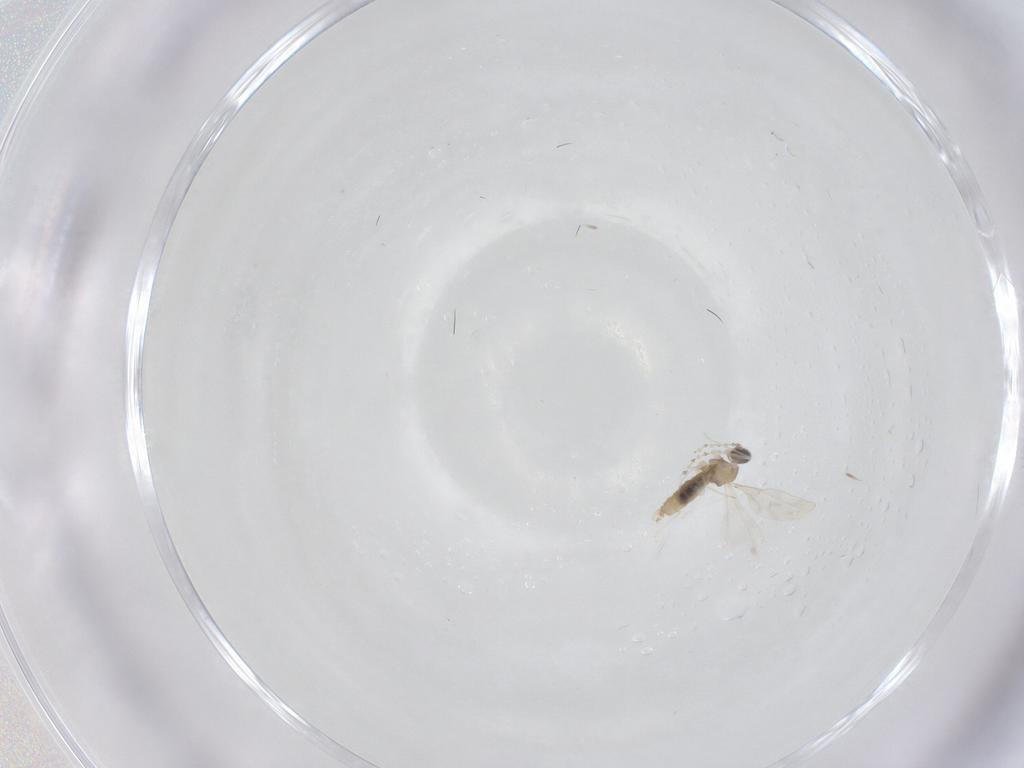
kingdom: Animalia
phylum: Arthropoda
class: Insecta
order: Diptera
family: Cecidomyiidae
